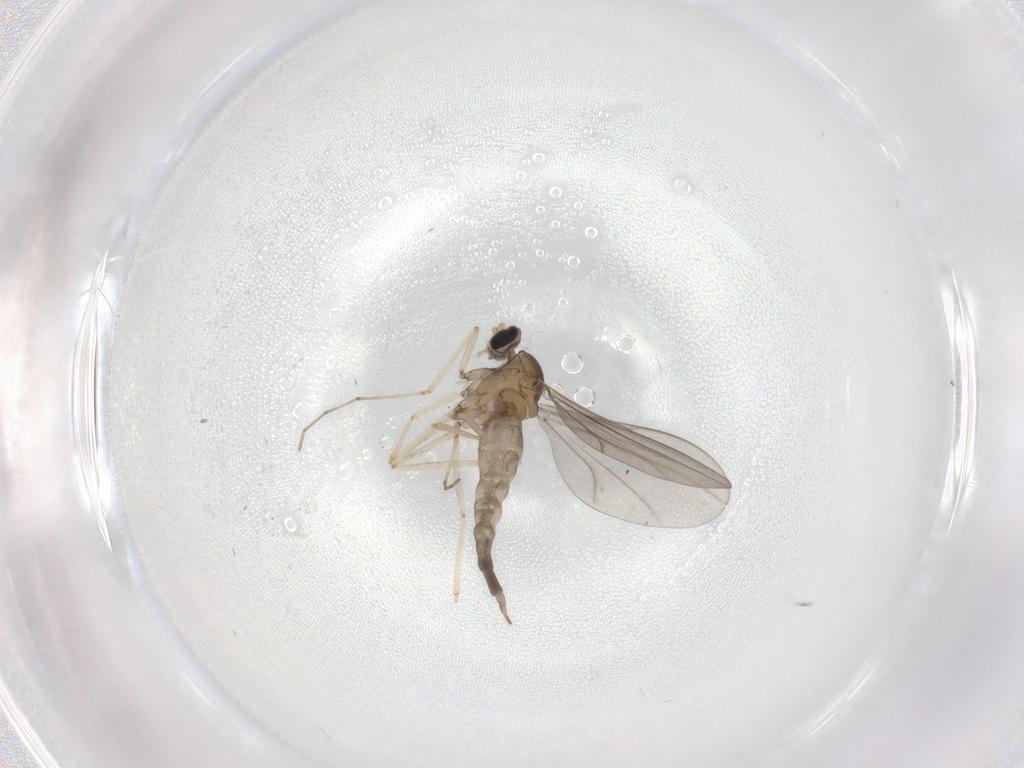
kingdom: Animalia
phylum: Arthropoda
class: Insecta
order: Diptera
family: Cecidomyiidae
